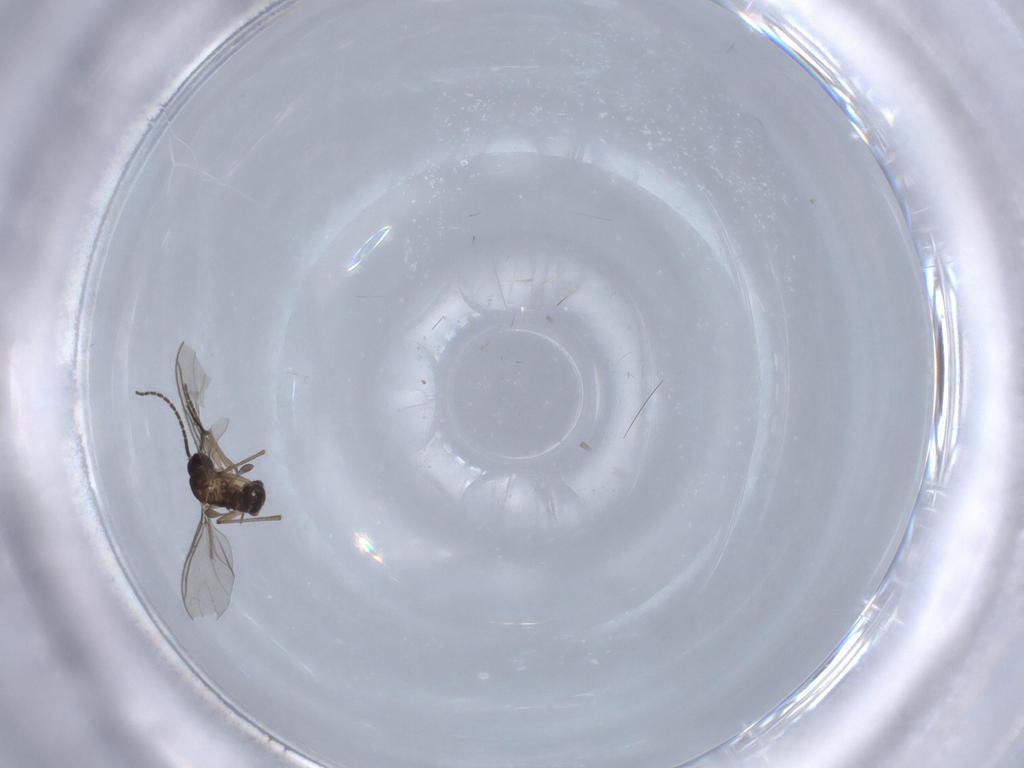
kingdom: Animalia
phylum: Arthropoda
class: Insecta
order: Diptera
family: Sciaridae
